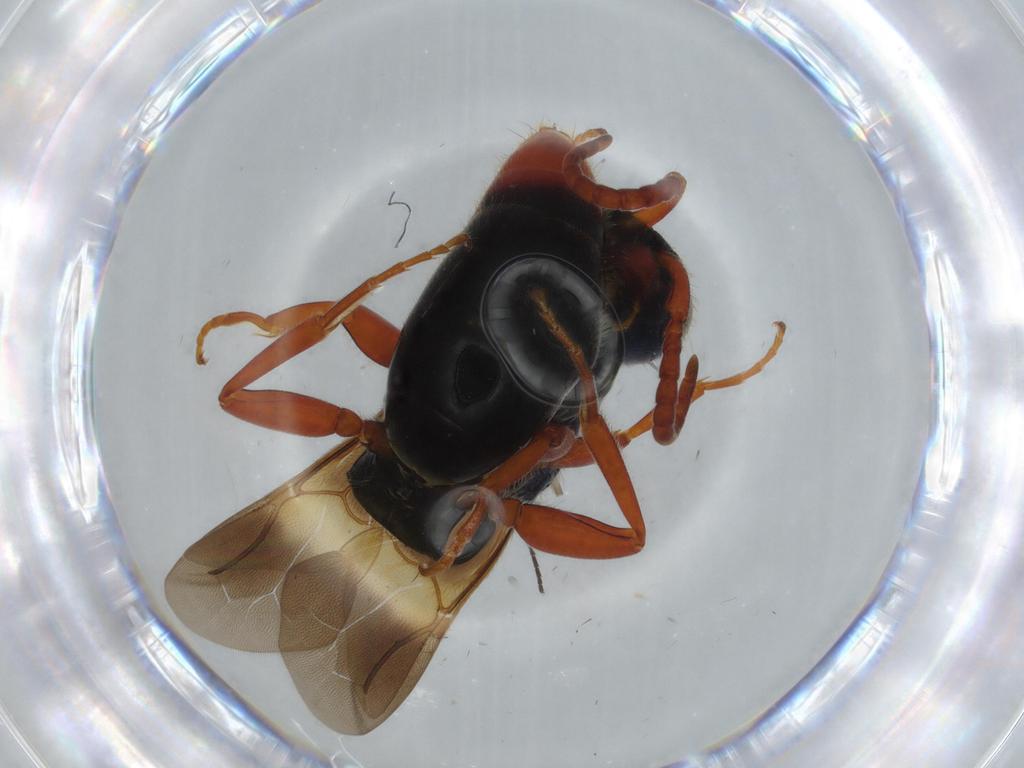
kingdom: Animalia
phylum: Arthropoda
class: Insecta
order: Hymenoptera
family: Bethylidae
